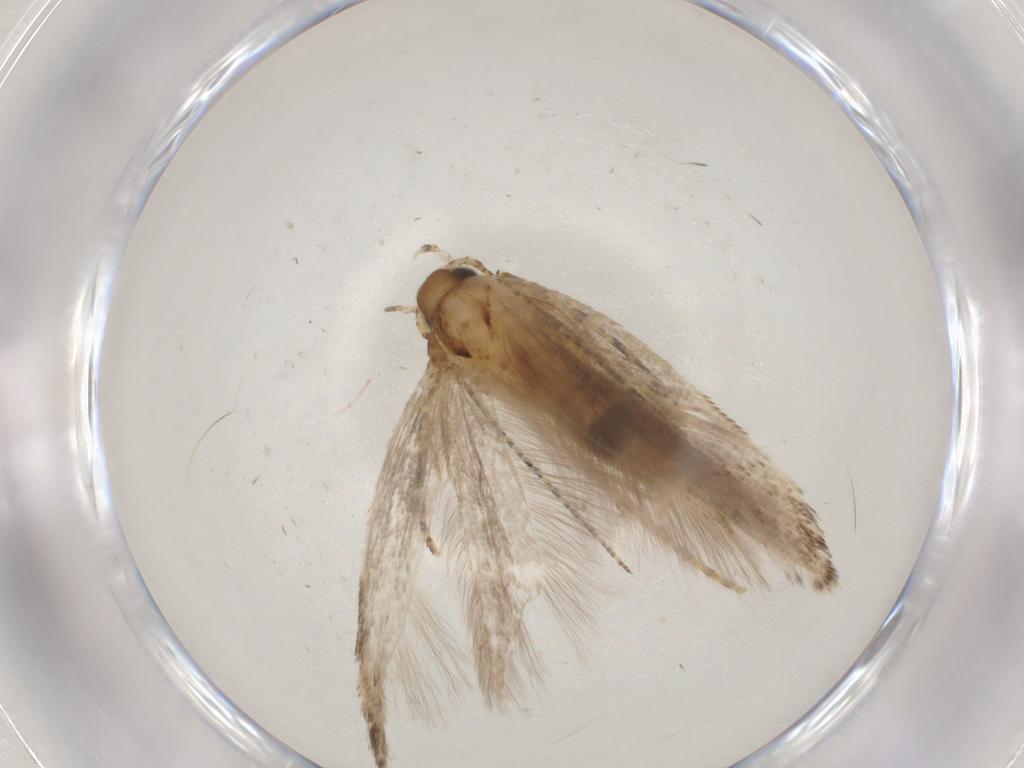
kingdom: Animalia
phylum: Arthropoda
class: Insecta
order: Lepidoptera
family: Gelechiidae
